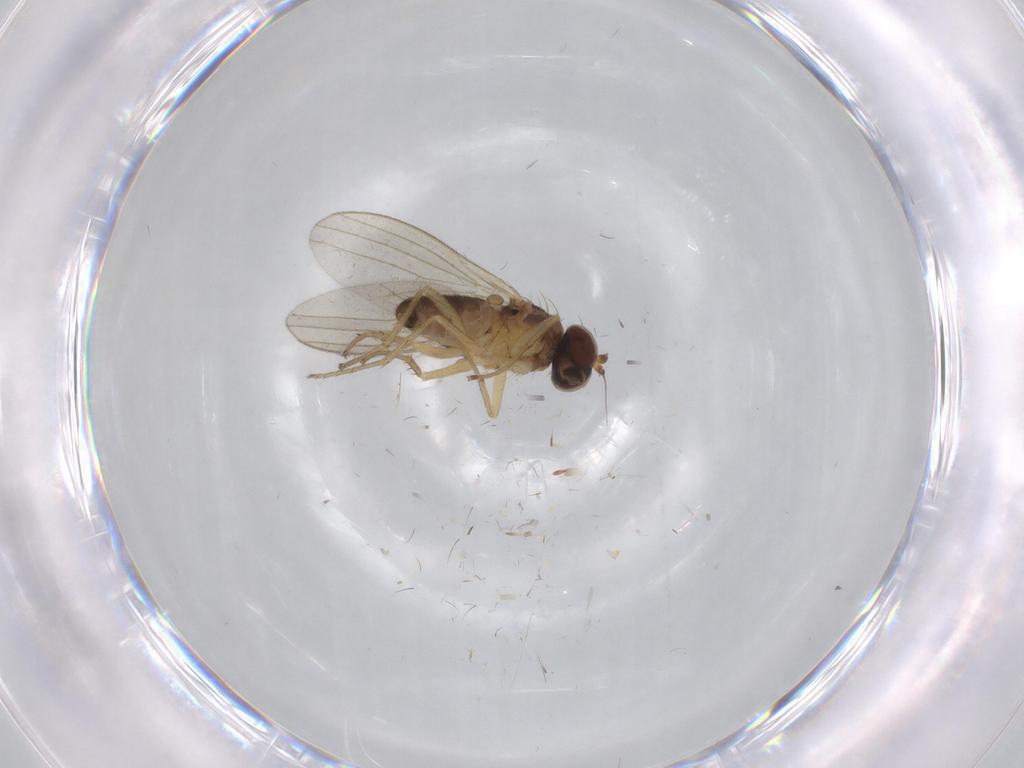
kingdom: Animalia
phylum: Arthropoda
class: Insecta
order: Diptera
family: Dolichopodidae
